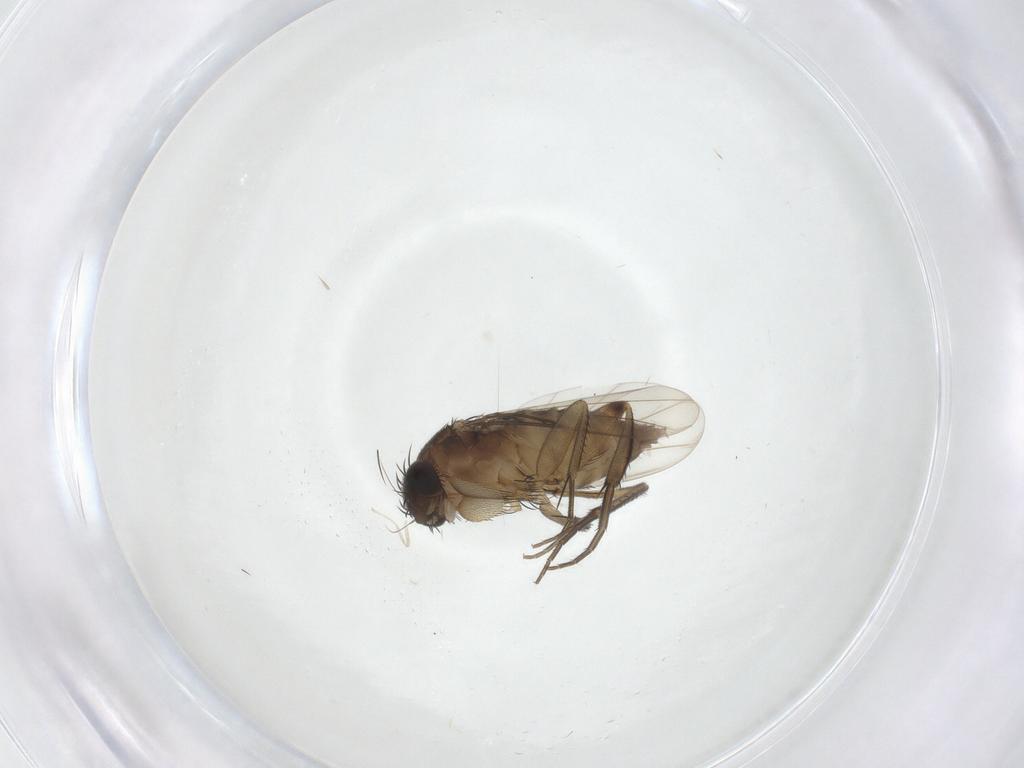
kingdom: Animalia
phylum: Arthropoda
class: Insecta
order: Diptera
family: Phoridae
